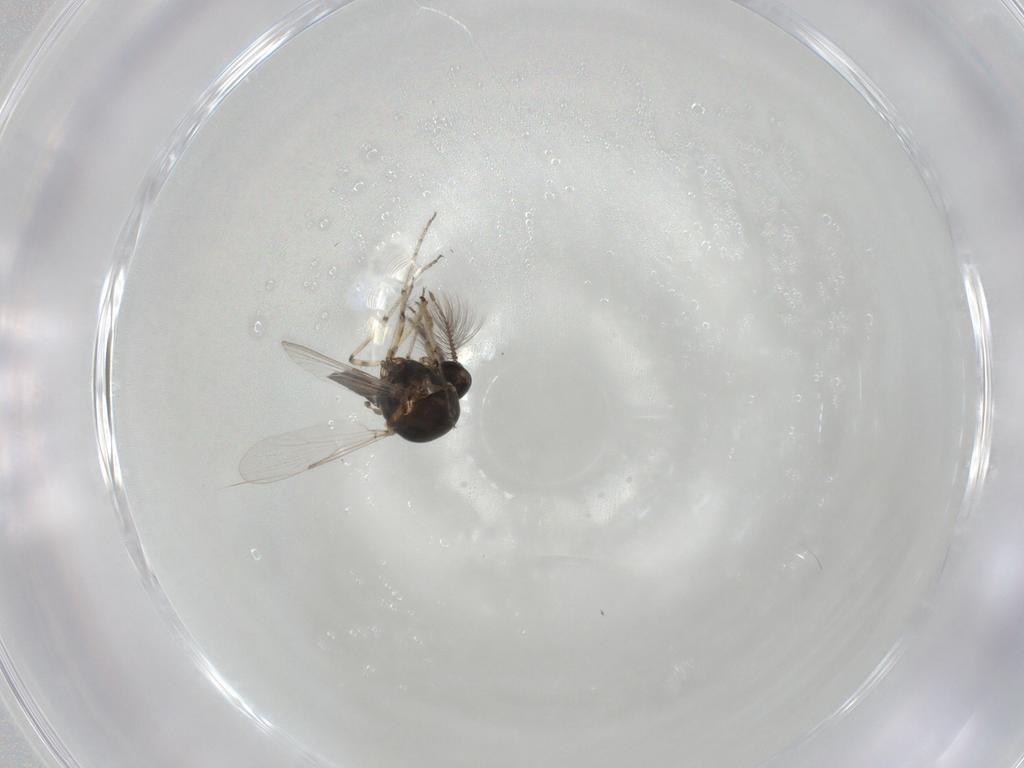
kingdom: Animalia
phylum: Arthropoda
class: Insecta
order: Diptera
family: Ceratopogonidae
